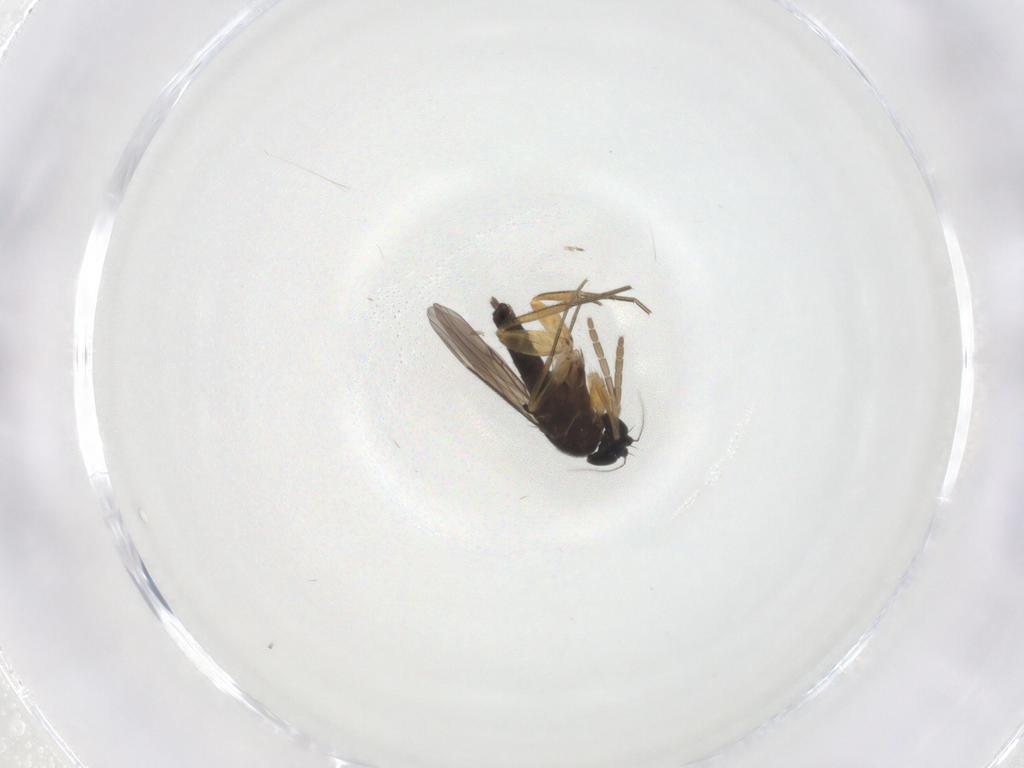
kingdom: Animalia
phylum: Arthropoda
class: Insecta
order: Diptera
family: Phoridae
